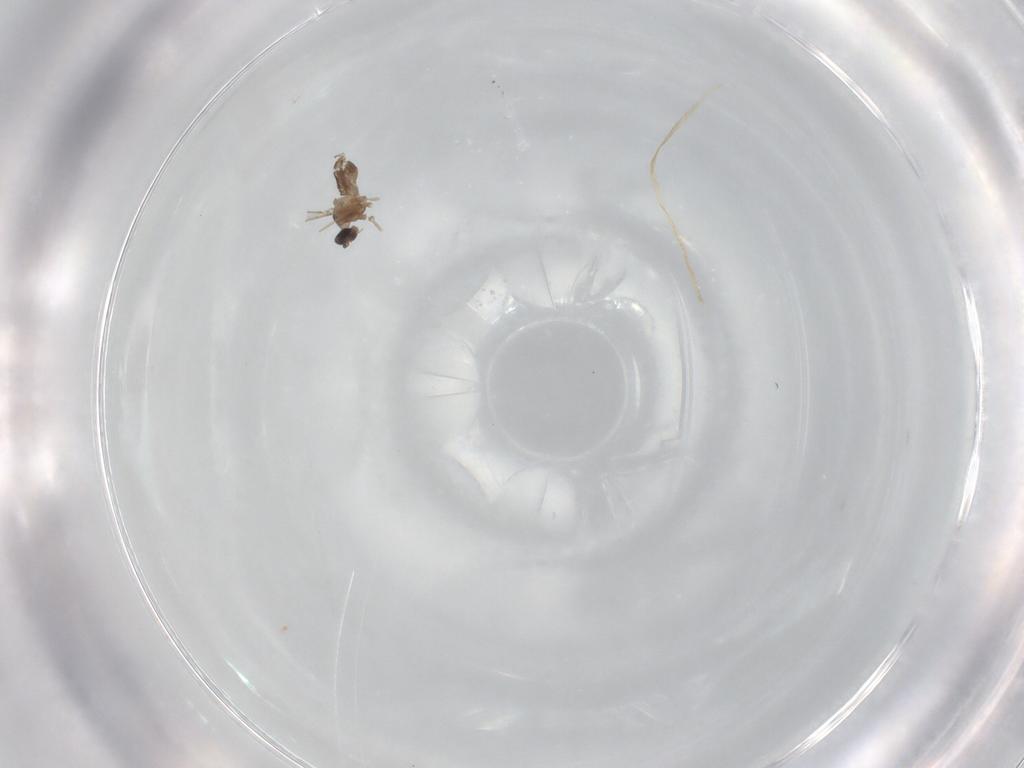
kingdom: Animalia
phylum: Arthropoda
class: Insecta
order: Diptera
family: Cecidomyiidae
